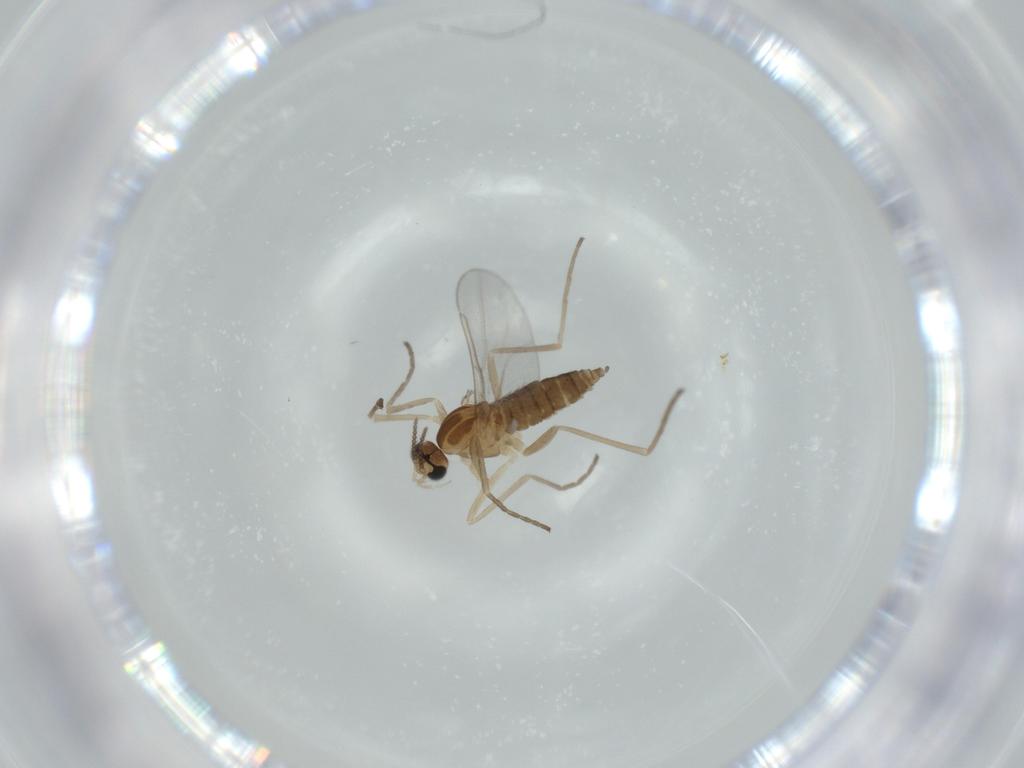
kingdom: Animalia
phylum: Arthropoda
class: Insecta
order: Diptera
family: Cecidomyiidae
